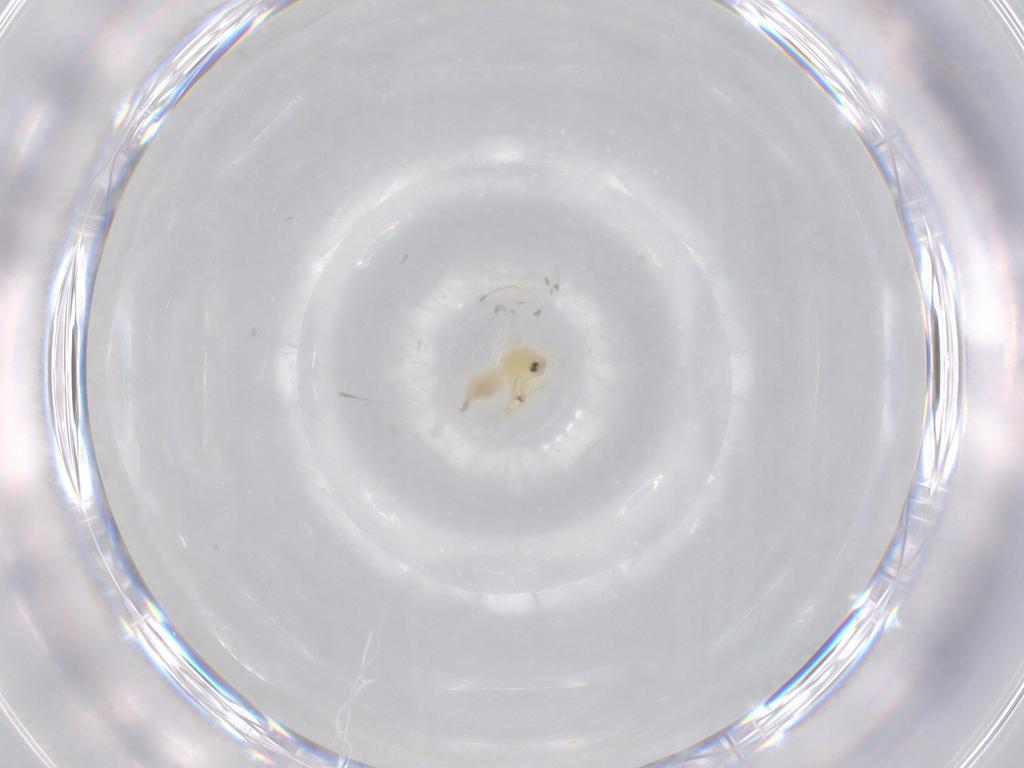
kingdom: Animalia
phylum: Arthropoda
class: Insecta
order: Hemiptera
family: Aleyrodidae
